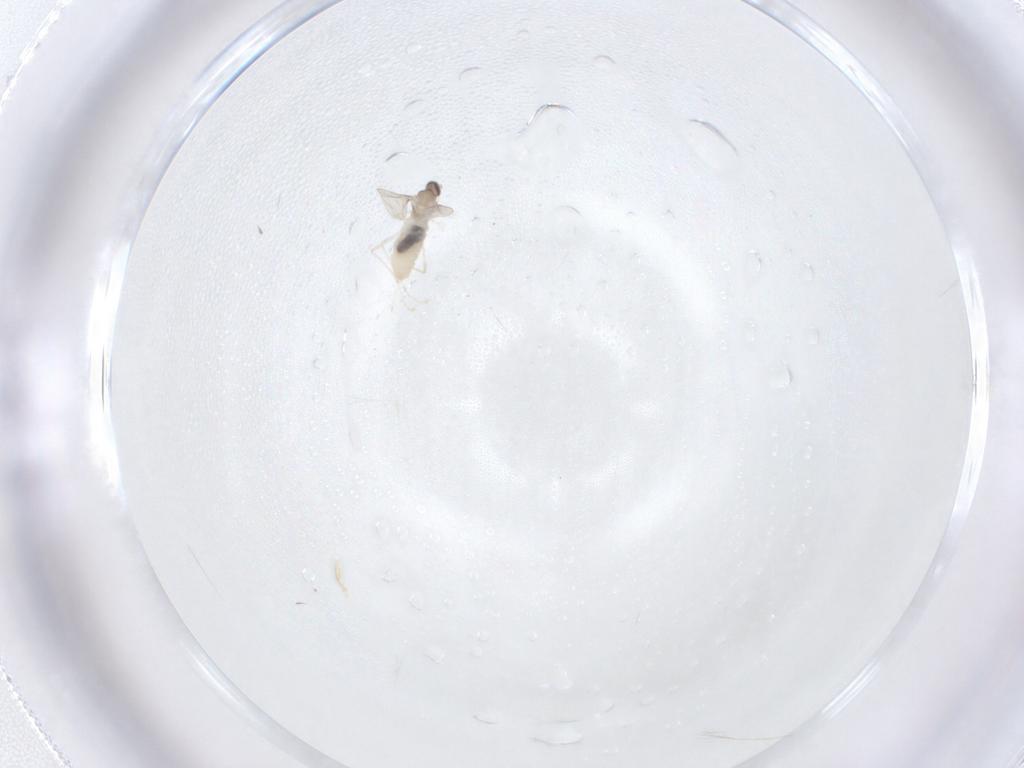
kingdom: Animalia
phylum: Arthropoda
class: Insecta
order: Diptera
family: Cecidomyiidae
